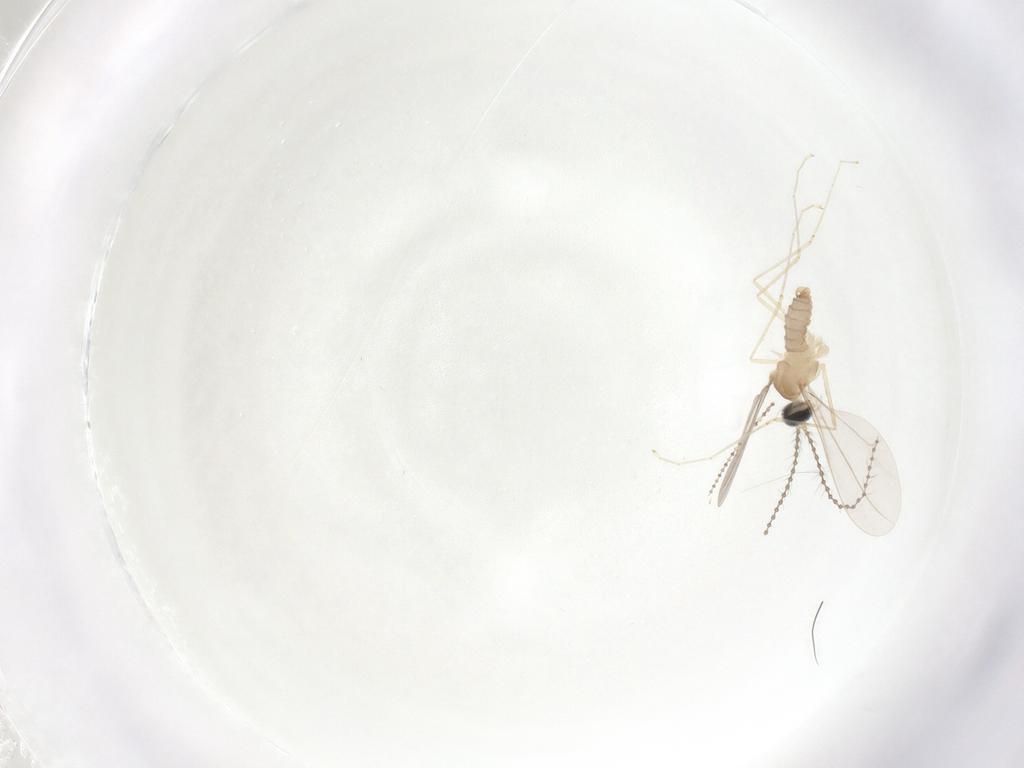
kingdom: Animalia
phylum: Arthropoda
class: Insecta
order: Diptera
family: Cecidomyiidae
